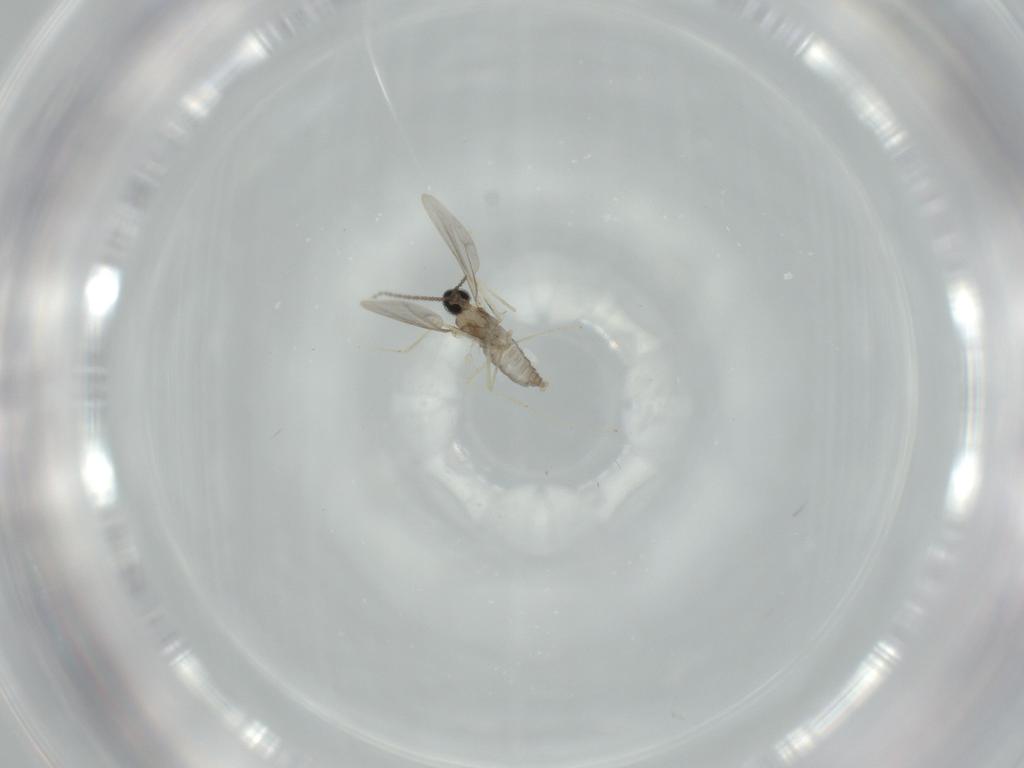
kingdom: Animalia
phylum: Arthropoda
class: Insecta
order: Diptera
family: Cecidomyiidae
